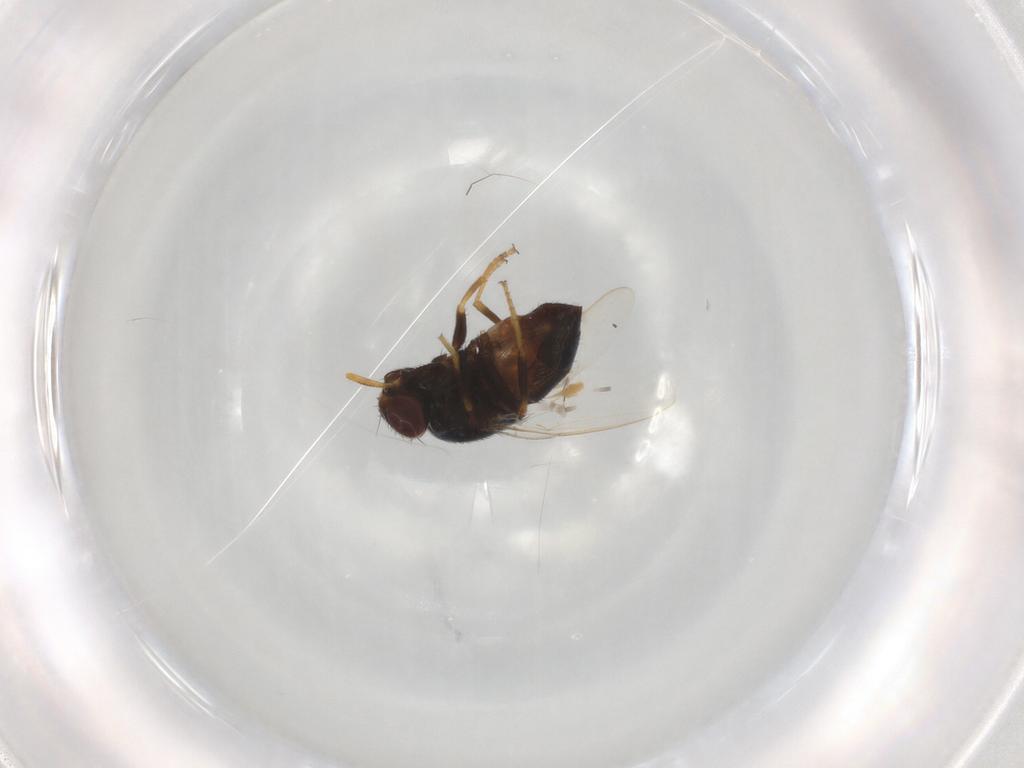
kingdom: Animalia
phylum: Arthropoda
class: Insecta
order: Diptera
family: Chloropidae
